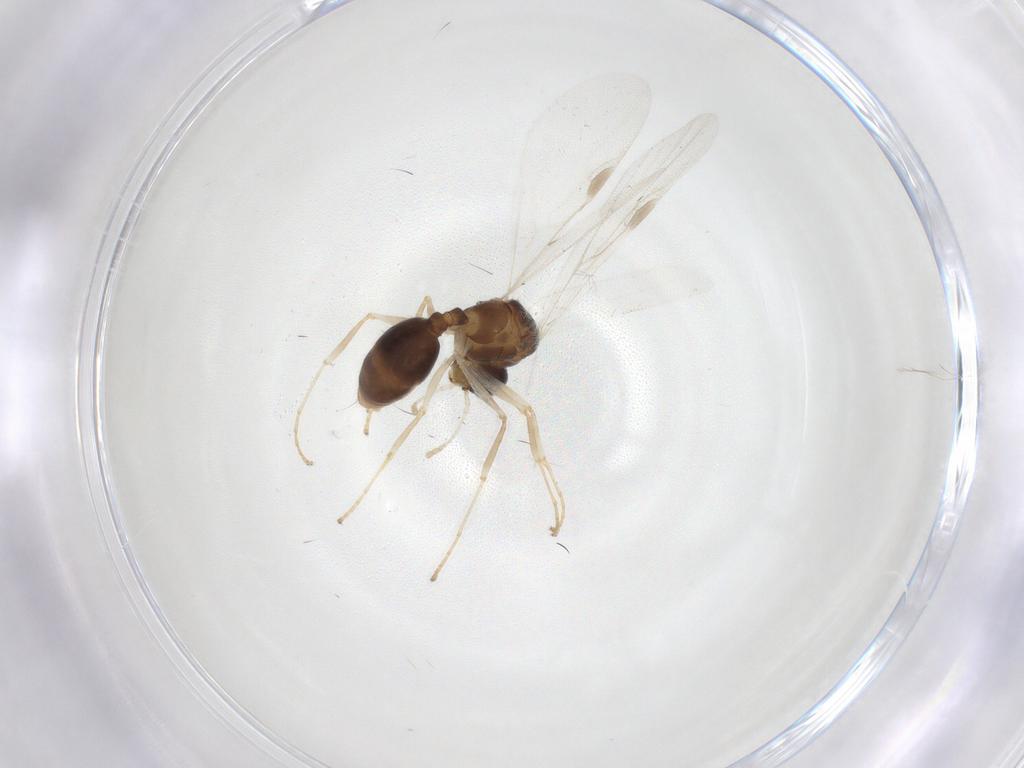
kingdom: Animalia
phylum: Arthropoda
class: Insecta
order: Hymenoptera
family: Formicidae
